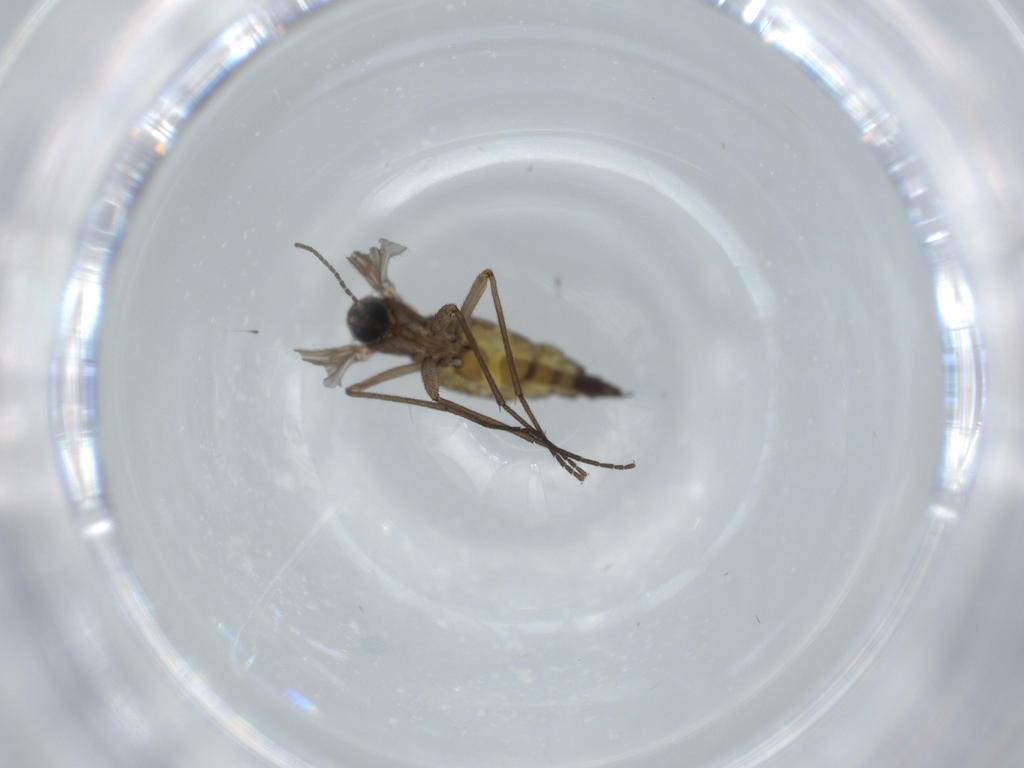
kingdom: Animalia
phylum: Arthropoda
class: Insecta
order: Diptera
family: Sciaridae
